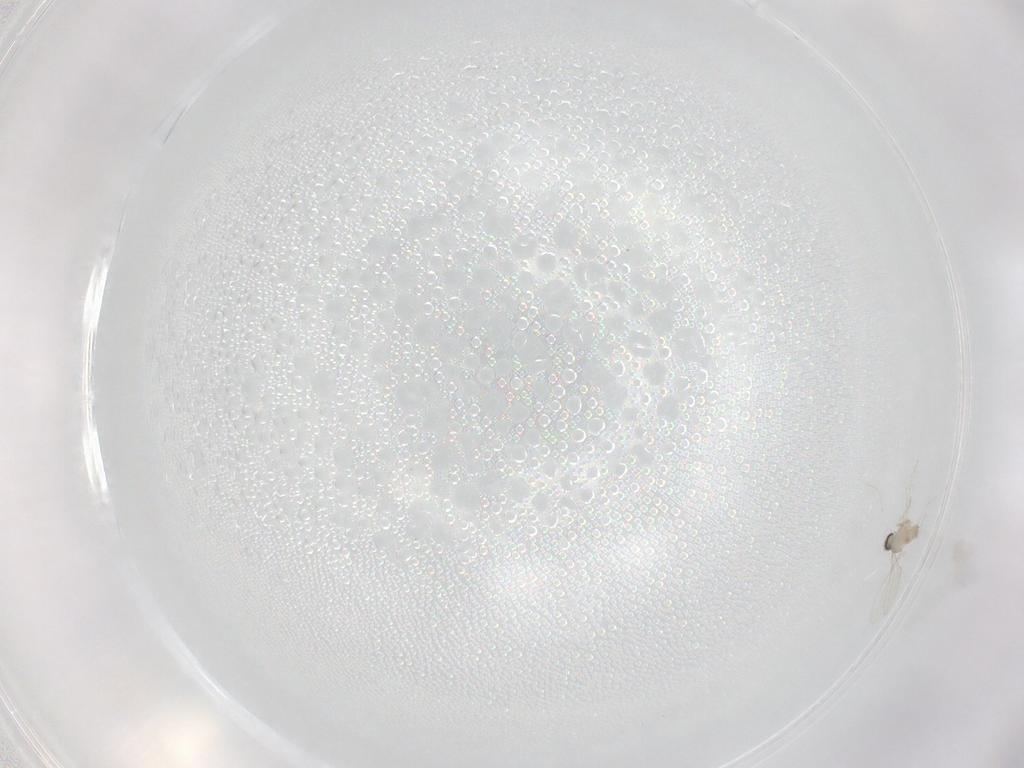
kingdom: Animalia
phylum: Arthropoda
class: Insecta
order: Diptera
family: Cecidomyiidae
